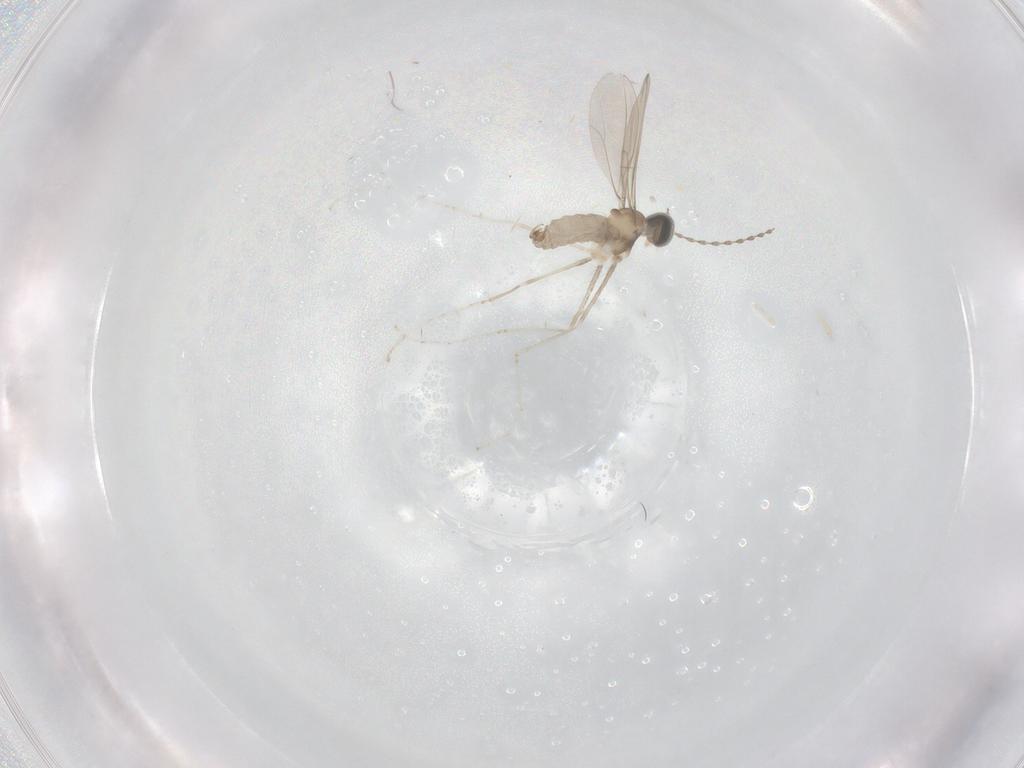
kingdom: Animalia
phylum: Arthropoda
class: Insecta
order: Diptera
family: Cecidomyiidae
